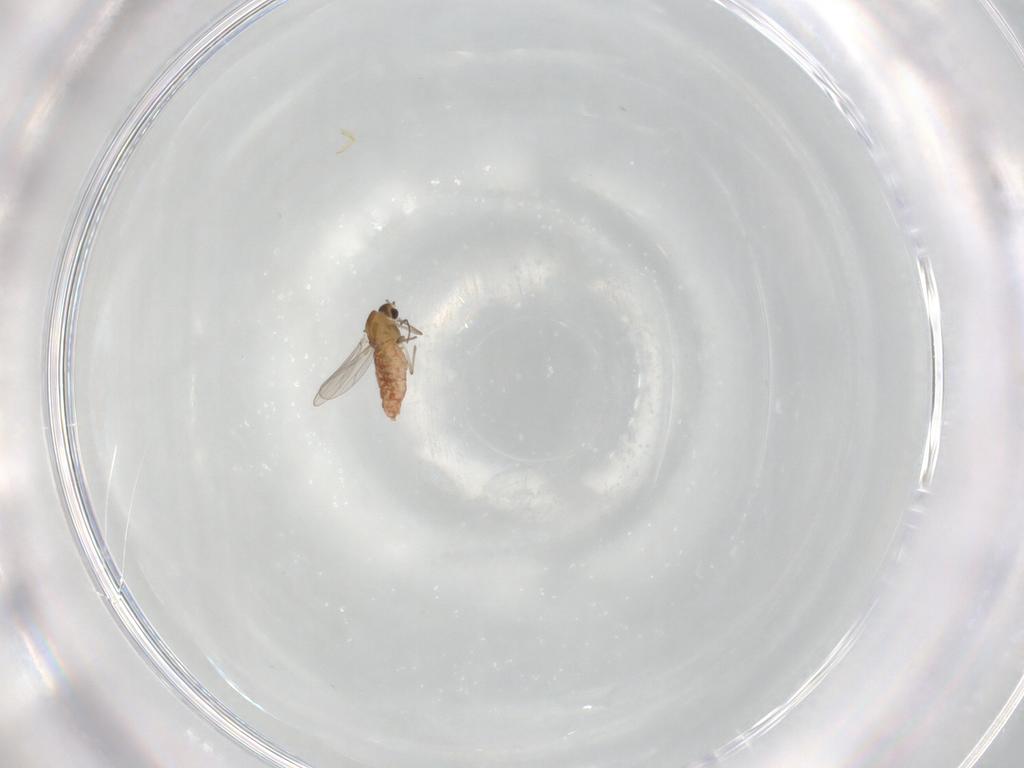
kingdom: Animalia
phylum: Arthropoda
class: Insecta
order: Diptera
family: Chironomidae
